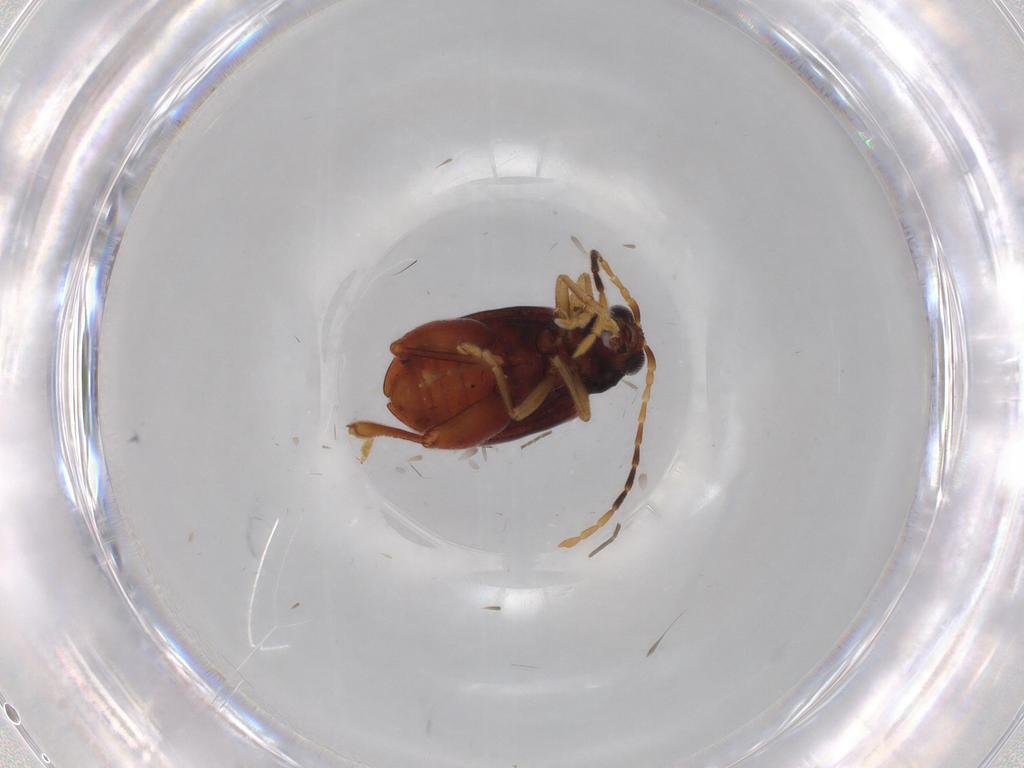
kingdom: Animalia
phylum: Arthropoda
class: Insecta
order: Coleoptera
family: Chrysomelidae
